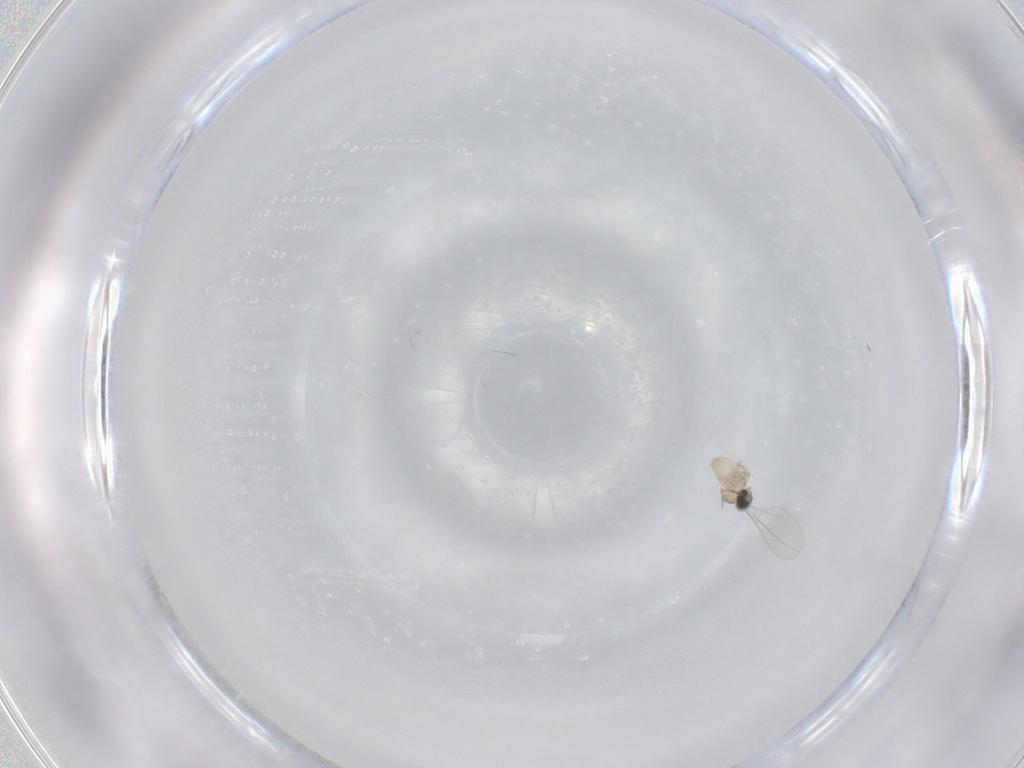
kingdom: Animalia
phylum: Arthropoda
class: Insecta
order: Diptera
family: Cecidomyiidae
